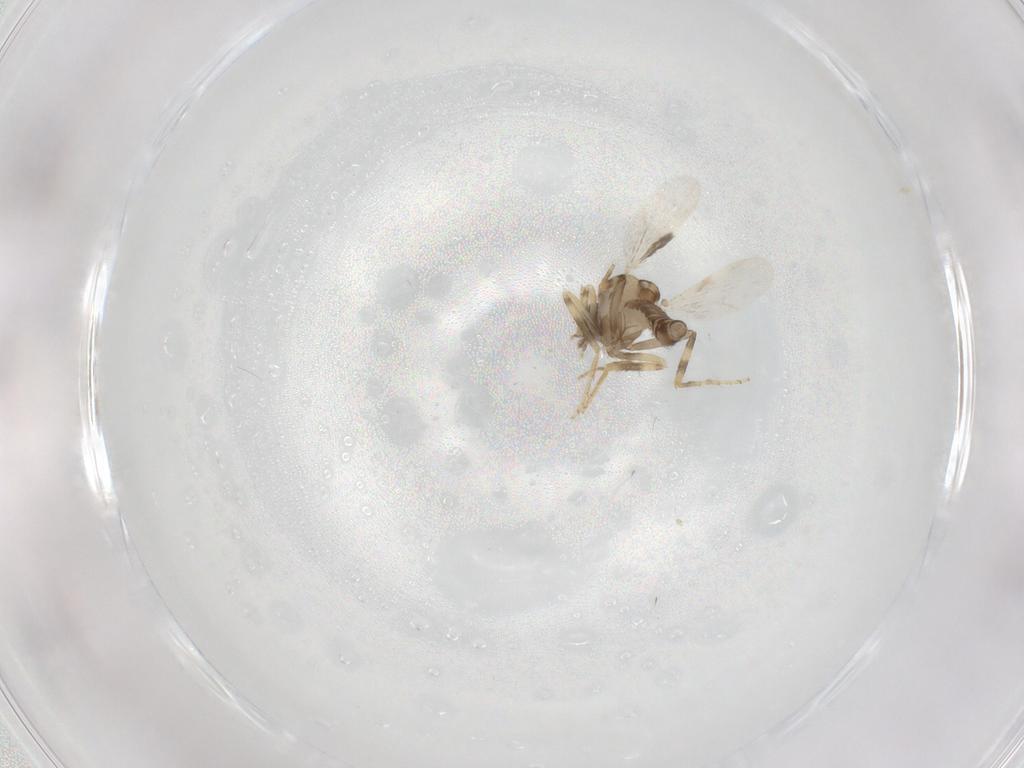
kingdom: Animalia
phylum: Arthropoda
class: Insecta
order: Diptera
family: Ceratopogonidae
